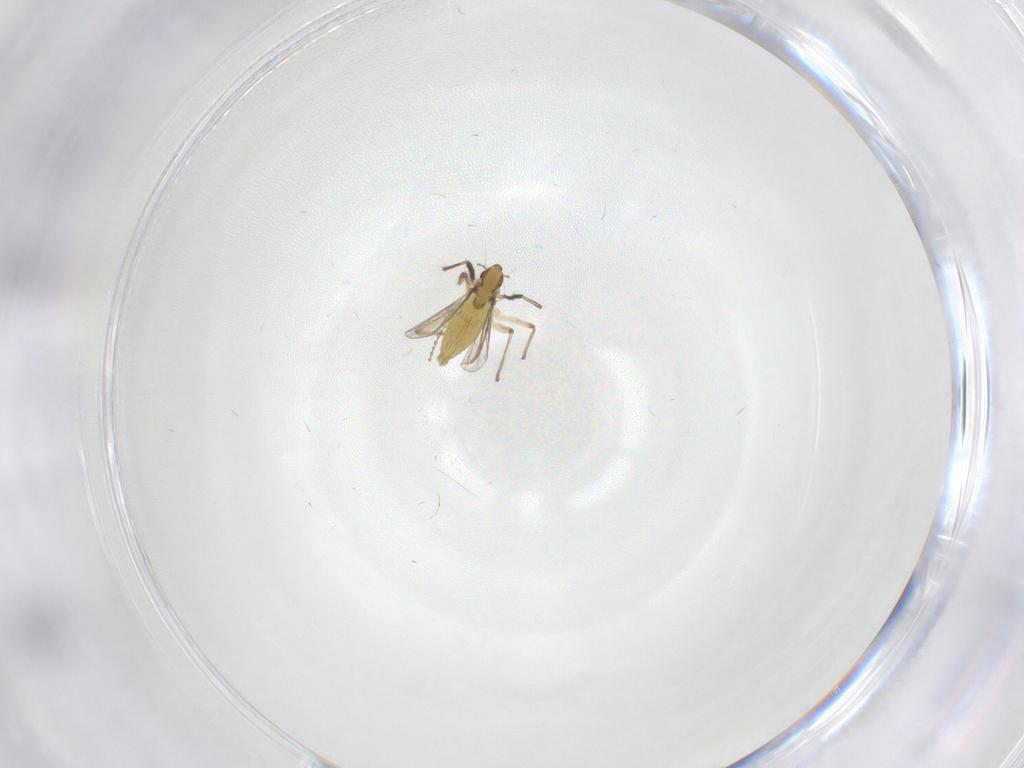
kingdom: Animalia
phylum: Arthropoda
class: Insecta
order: Diptera
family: Chironomidae
